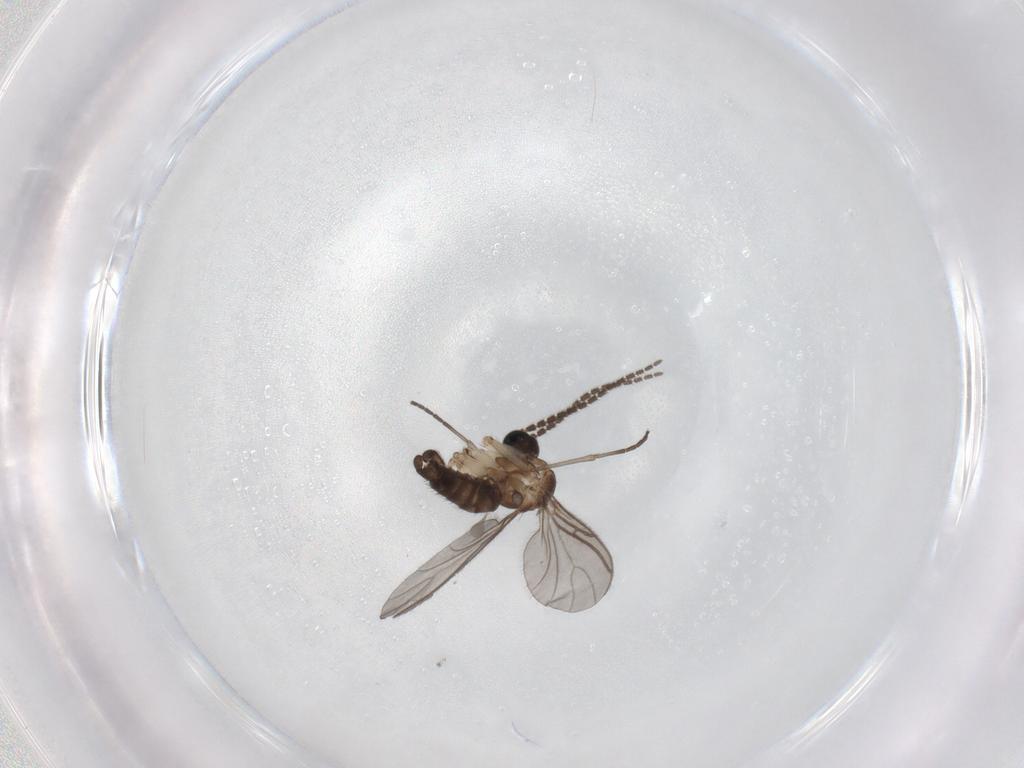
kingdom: Animalia
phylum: Arthropoda
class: Insecta
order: Diptera
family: Sciaridae
